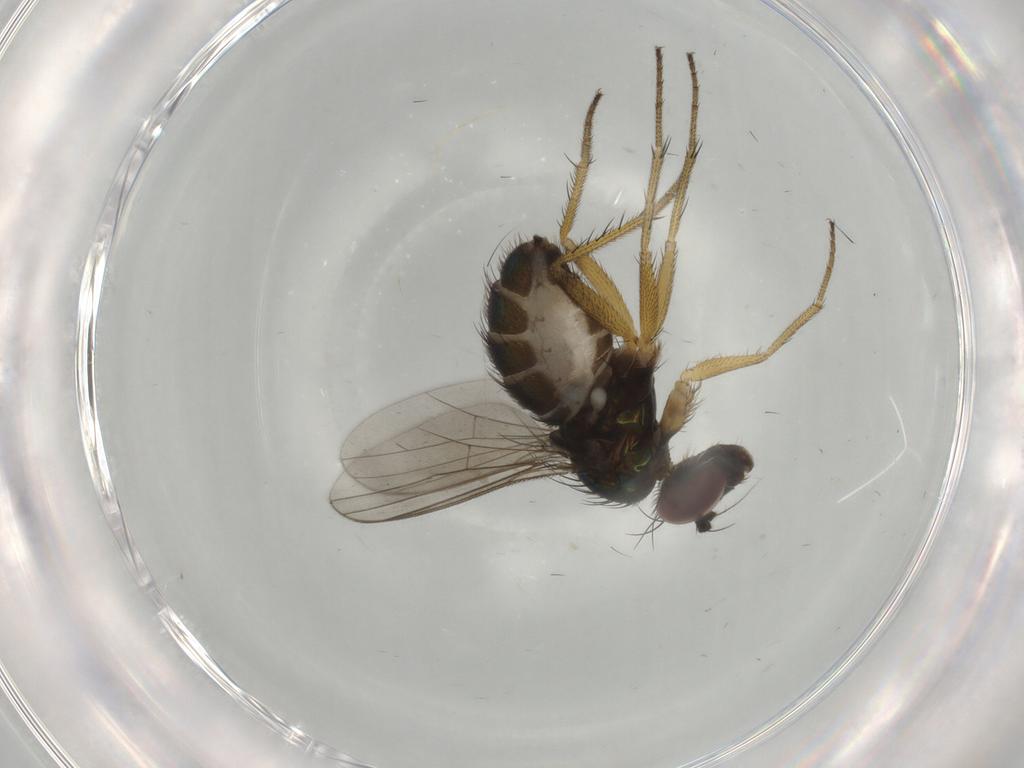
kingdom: Animalia
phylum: Arthropoda
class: Insecta
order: Diptera
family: Dolichopodidae
